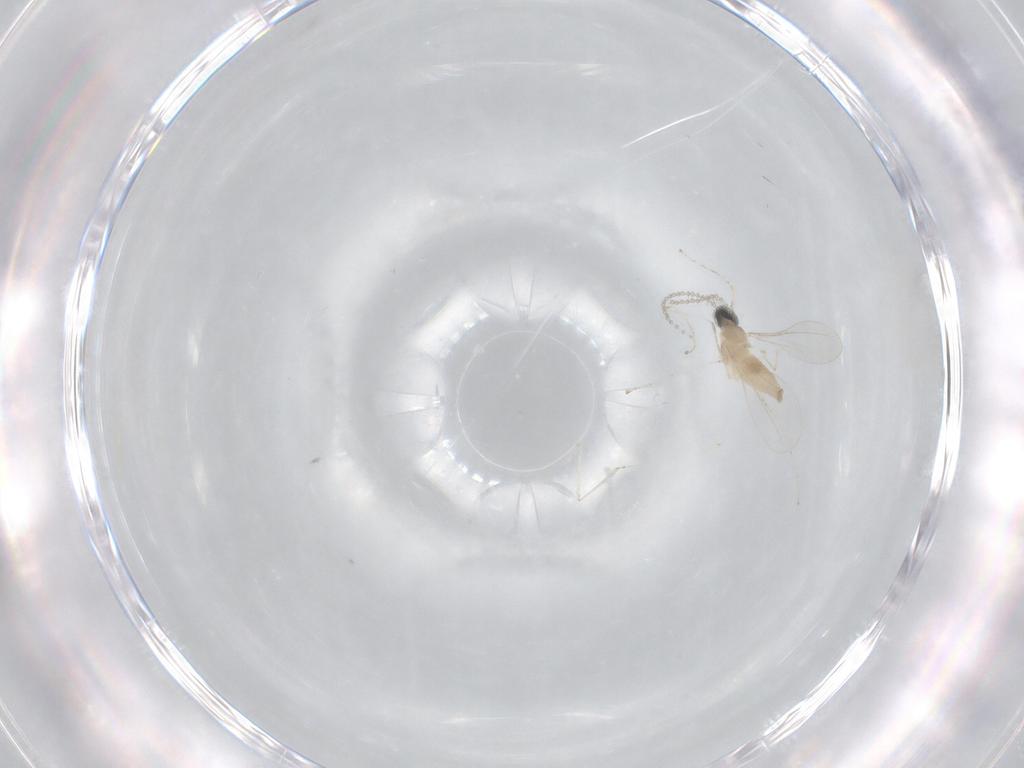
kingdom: Animalia
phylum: Arthropoda
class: Insecta
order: Diptera
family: Cecidomyiidae
